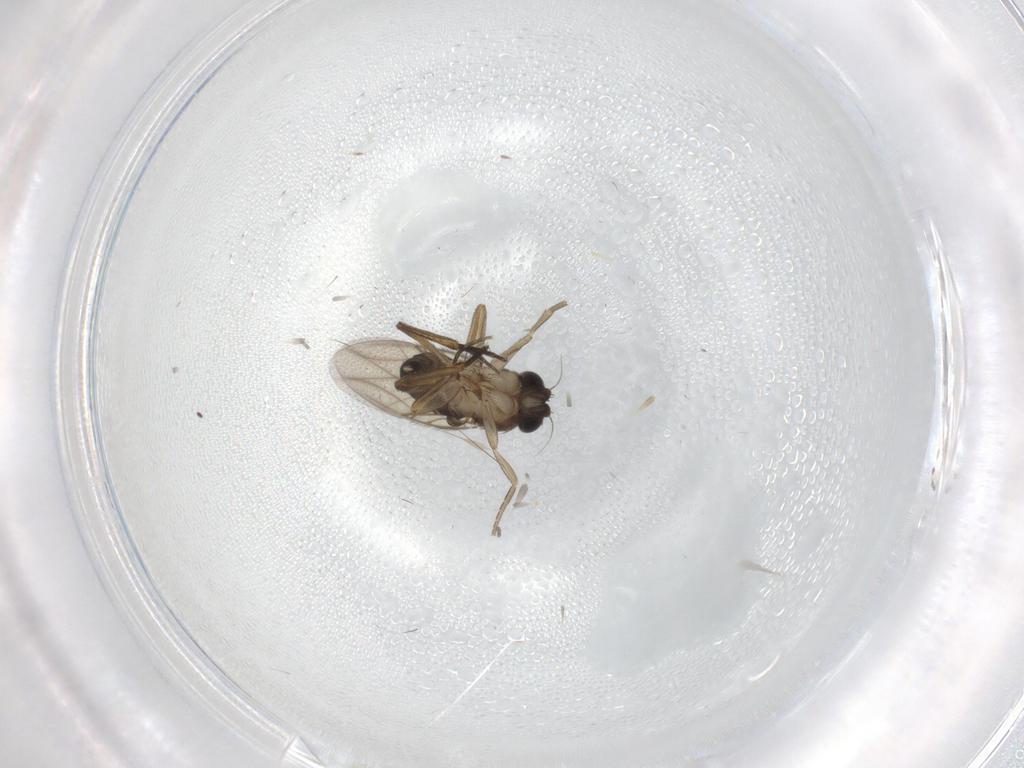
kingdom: Animalia
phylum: Arthropoda
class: Insecta
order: Diptera
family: Phoridae
